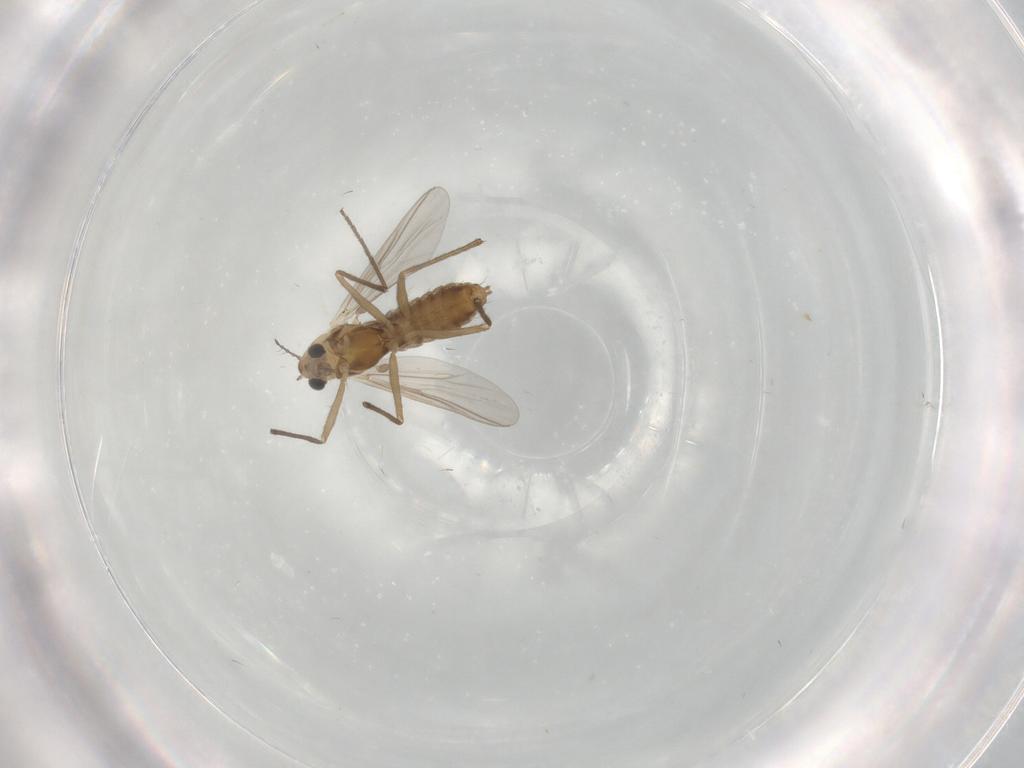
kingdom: Animalia
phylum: Arthropoda
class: Insecta
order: Diptera
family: Chironomidae
